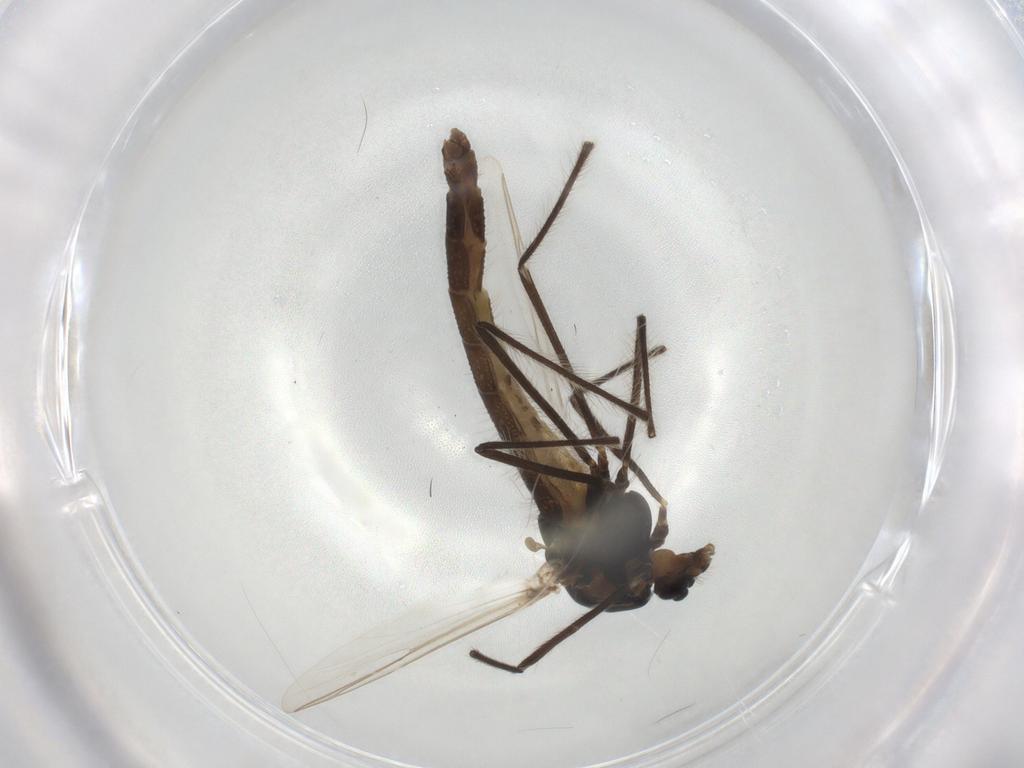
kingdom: Animalia
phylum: Arthropoda
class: Insecta
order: Diptera
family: Chironomidae
